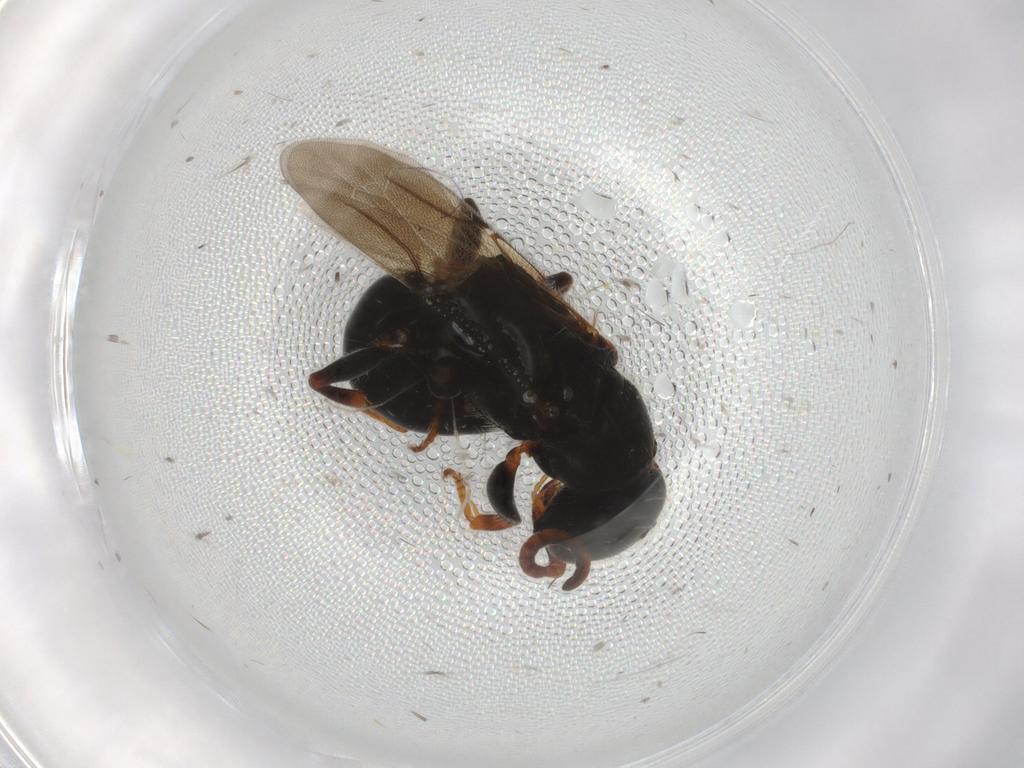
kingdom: Animalia
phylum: Arthropoda
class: Insecta
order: Hymenoptera
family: Bethylidae
